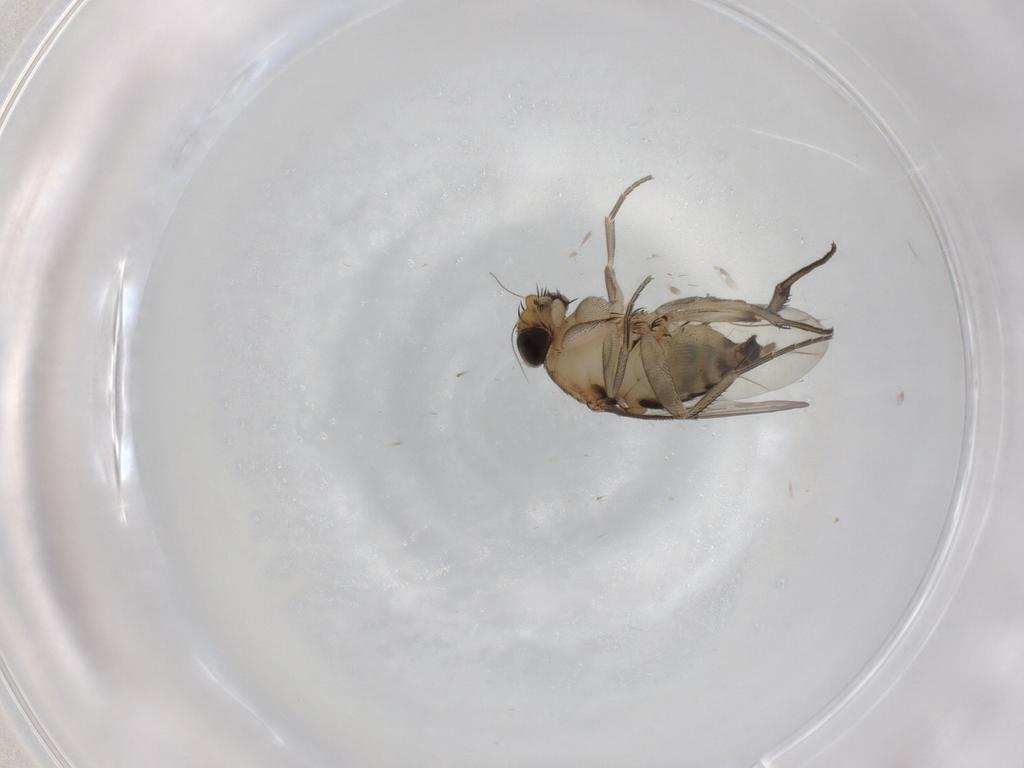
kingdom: Animalia
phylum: Arthropoda
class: Insecta
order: Diptera
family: Phoridae
